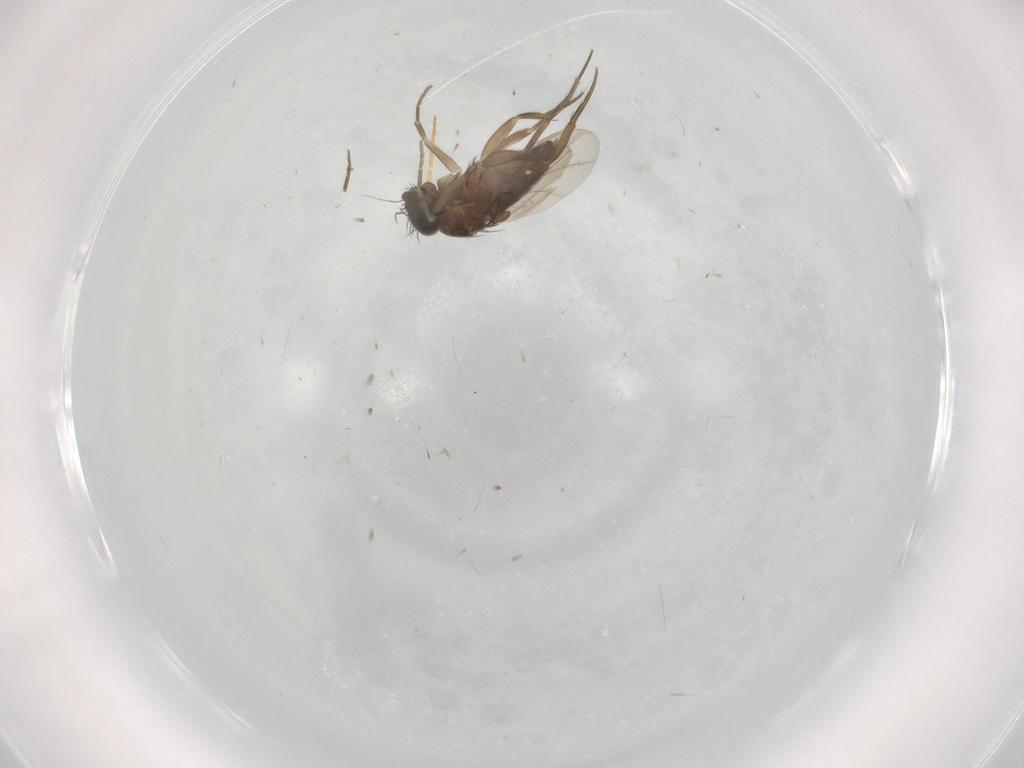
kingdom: Animalia
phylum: Arthropoda
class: Insecta
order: Diptera
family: Phoridae
